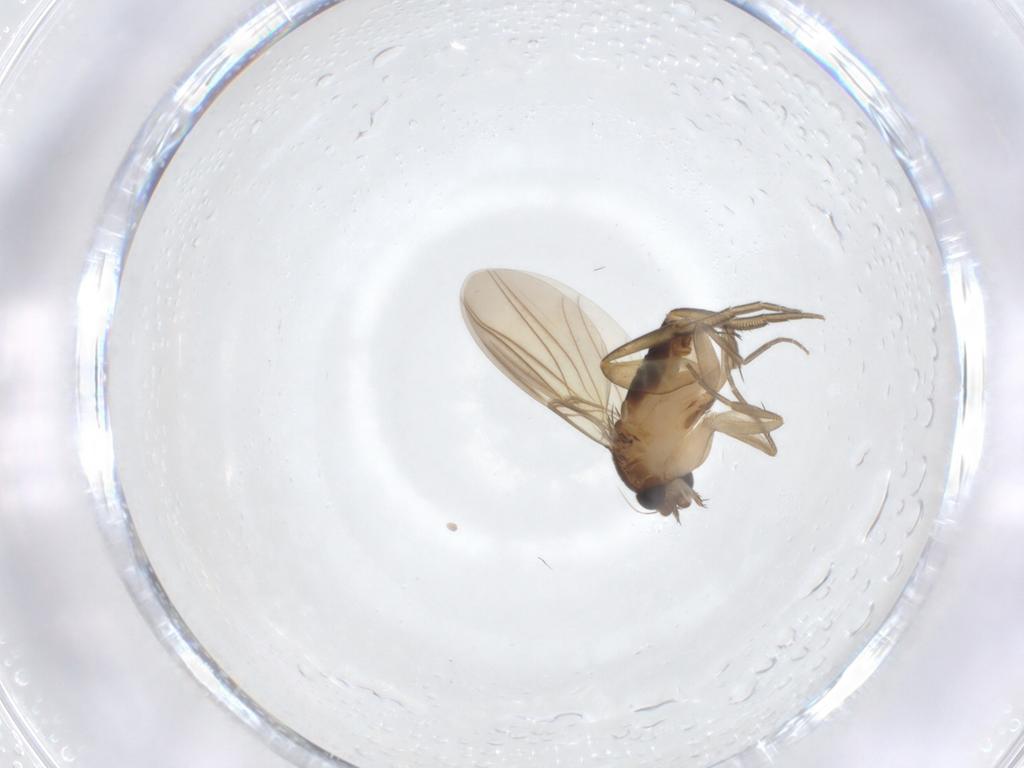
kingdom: Animalia
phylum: Arthropoda
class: Insecta
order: Diptera
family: Phoridae
